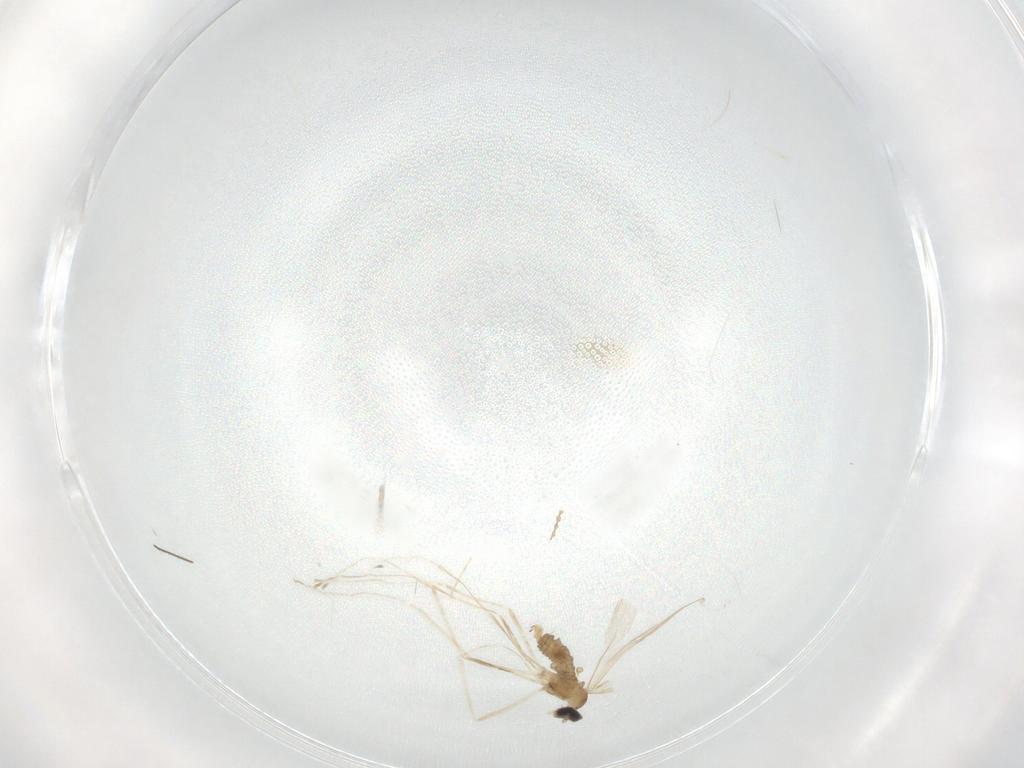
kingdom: Animalia
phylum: Arthropoda
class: Insecta
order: Diptera
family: Cecidomyiidae
